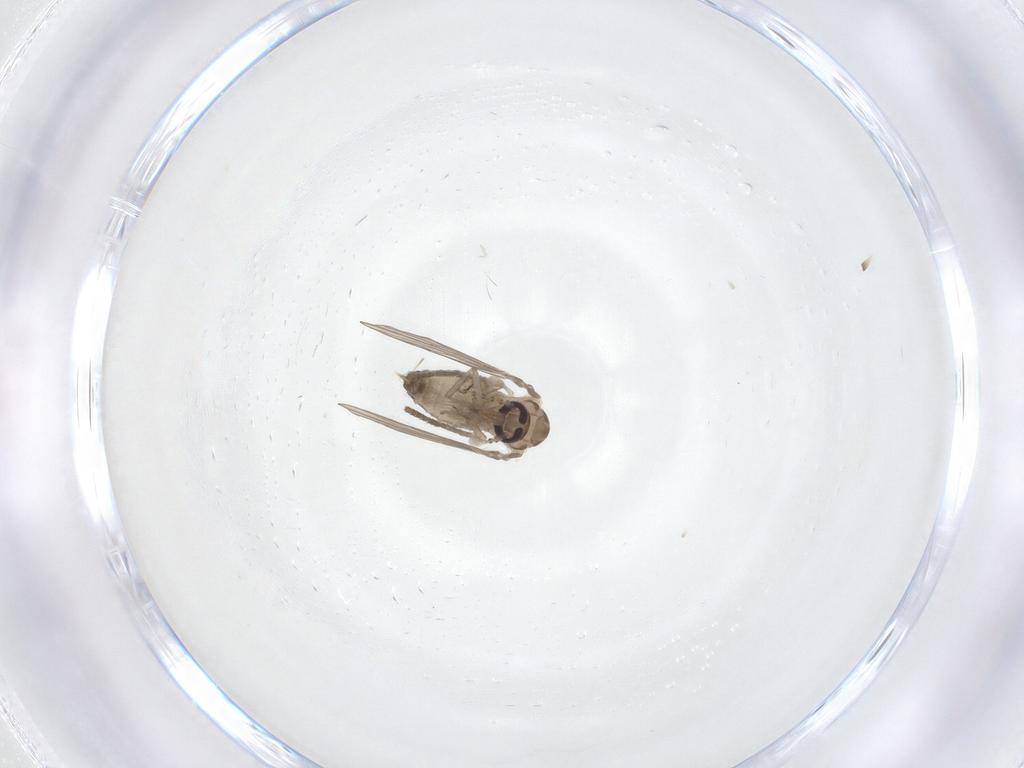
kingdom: Animalia
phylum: Arthropoda
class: Insecta
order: Diptera
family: Psychodidae
